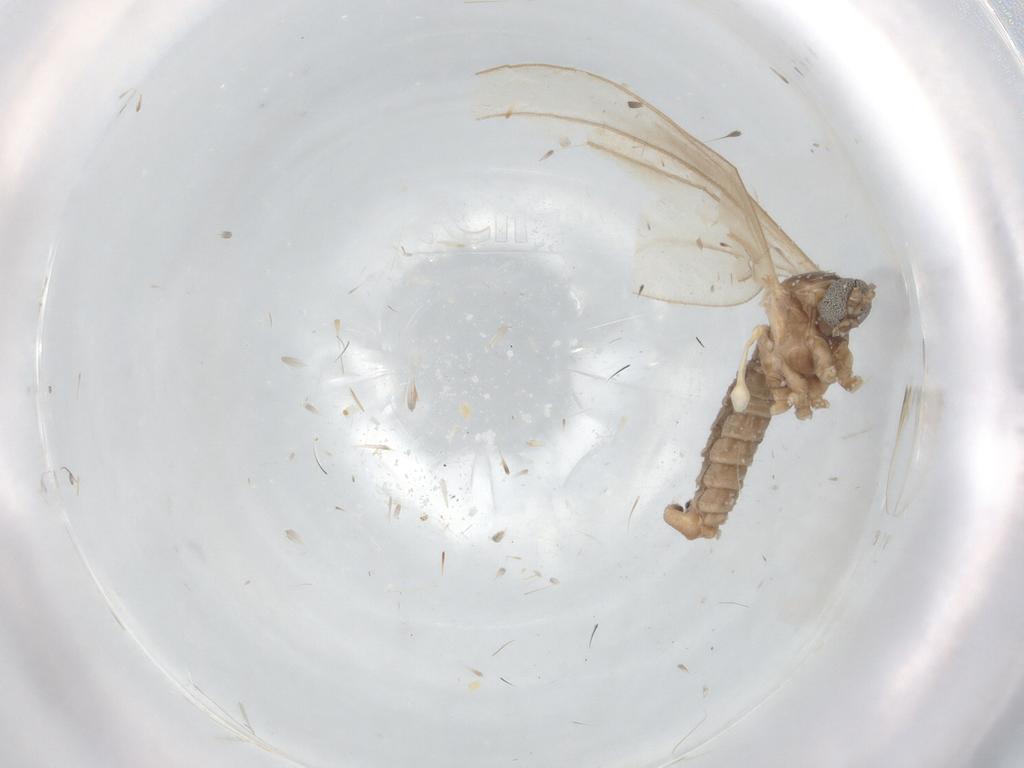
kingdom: Animalia
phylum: Arthropoda
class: Insecta
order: Diptera
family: Cecidomyiidae
